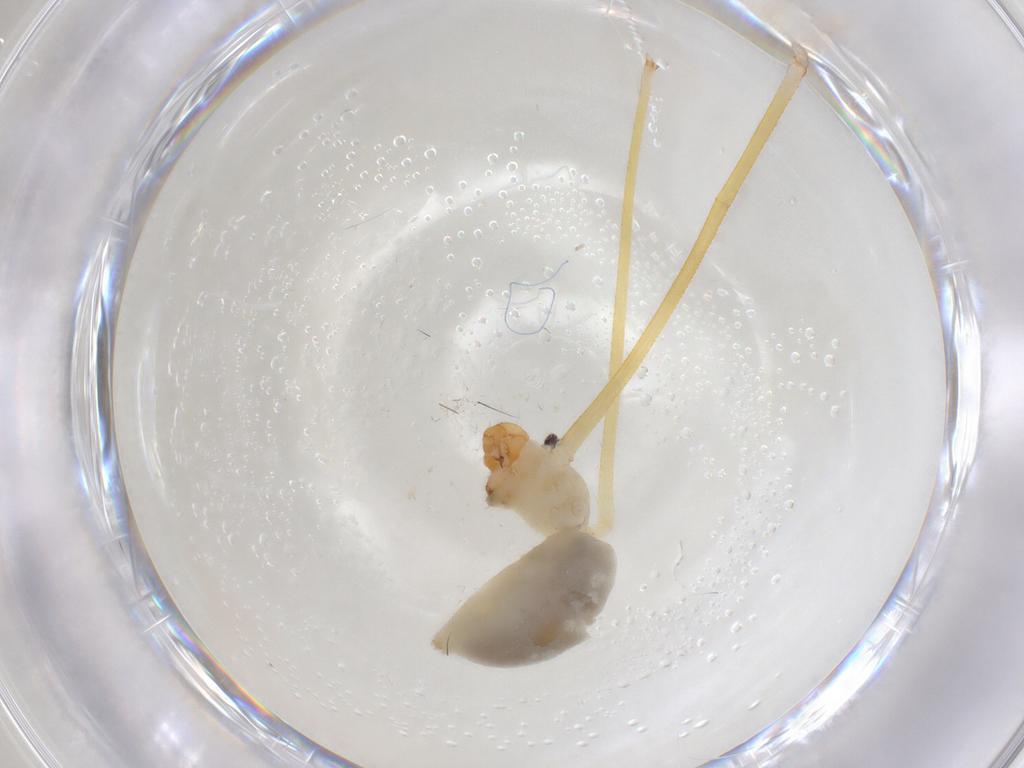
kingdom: Animalia
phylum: Arthropoda
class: Arachnida
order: Araneae
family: Pholcidae
